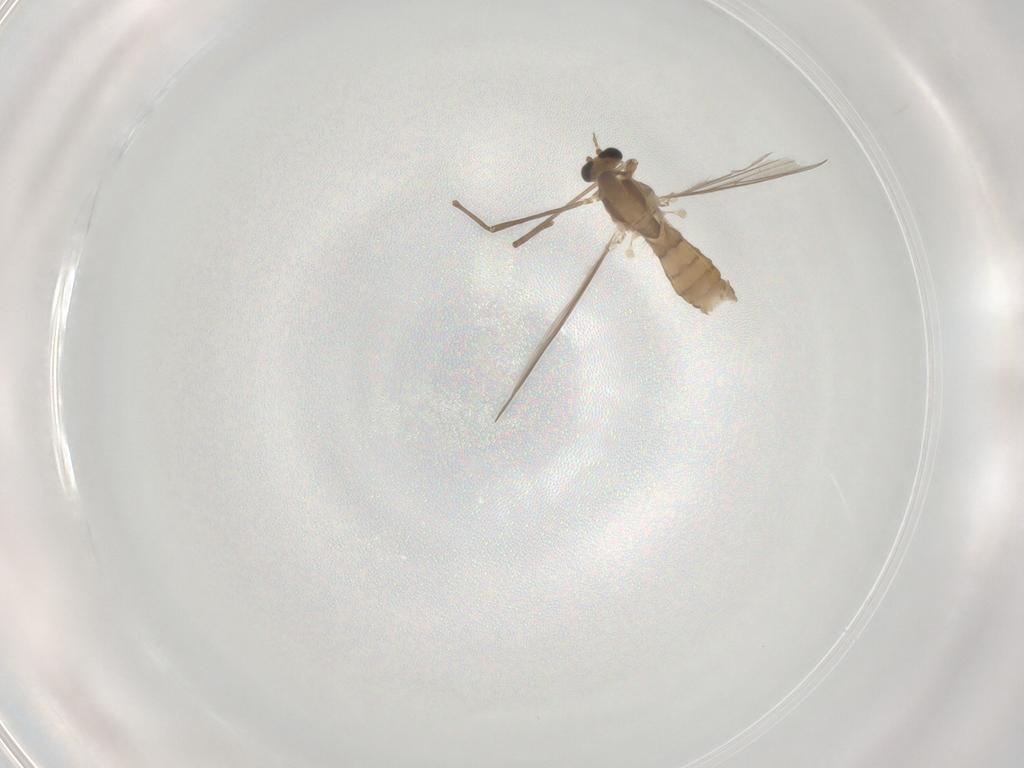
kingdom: Animalia
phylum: Arthropoda
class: Insecta
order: Diptera
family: Chironomidae
